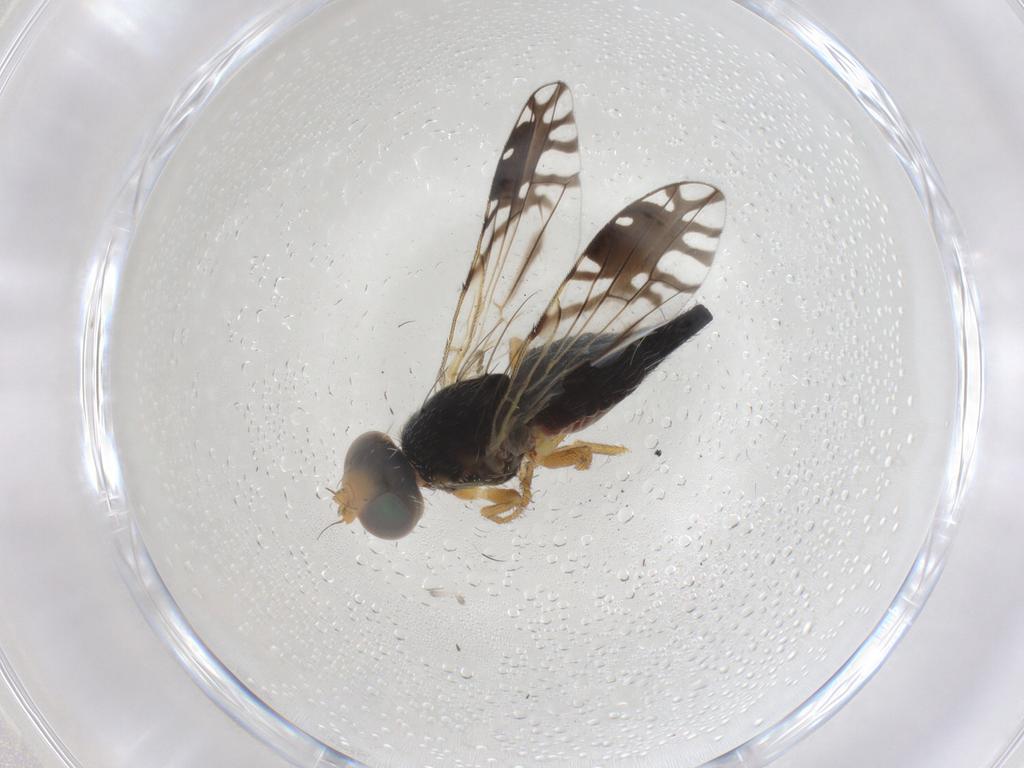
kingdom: Animalia
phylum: Arthropoda
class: Insecta
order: Diptera
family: Tephritidae
